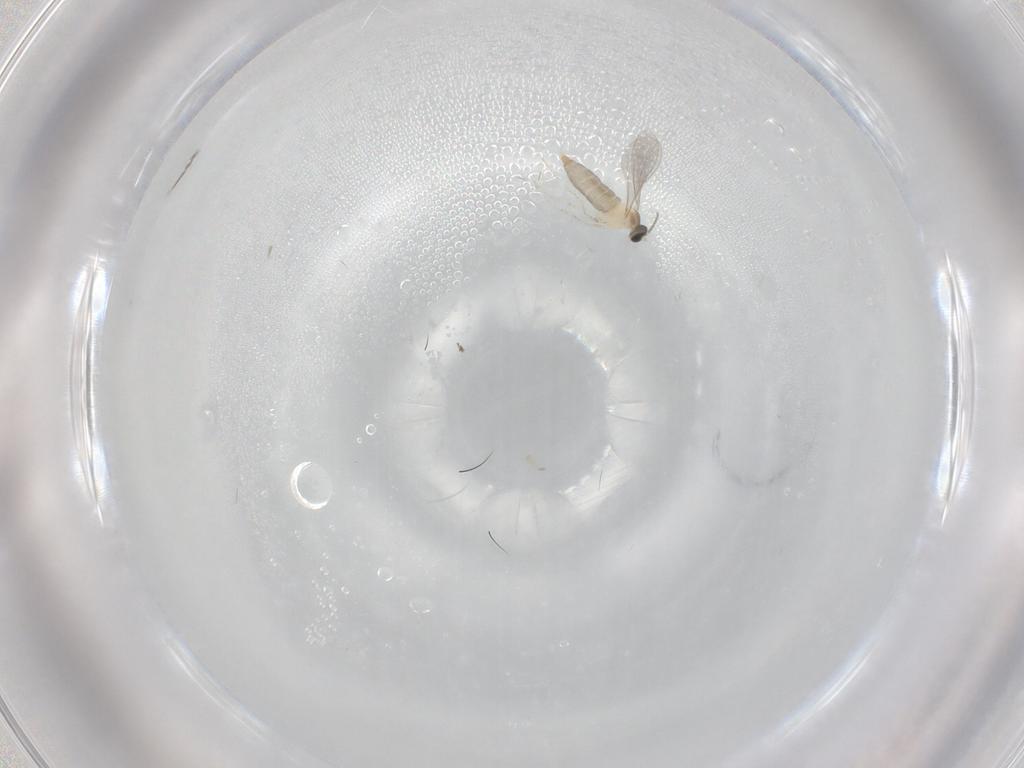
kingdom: Animalia
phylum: Arthropoda
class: Insecta
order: Diptera
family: Cecidomyiidae
